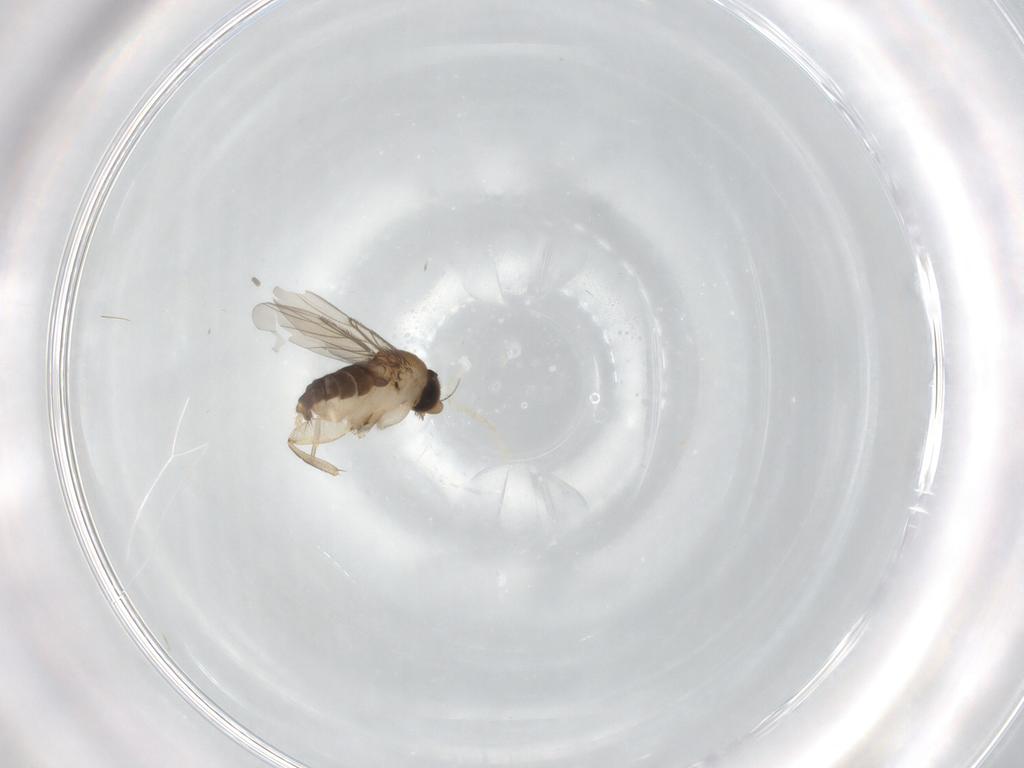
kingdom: Animalia
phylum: Arthropoda
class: Insecta
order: Diptera
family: Phoridae
